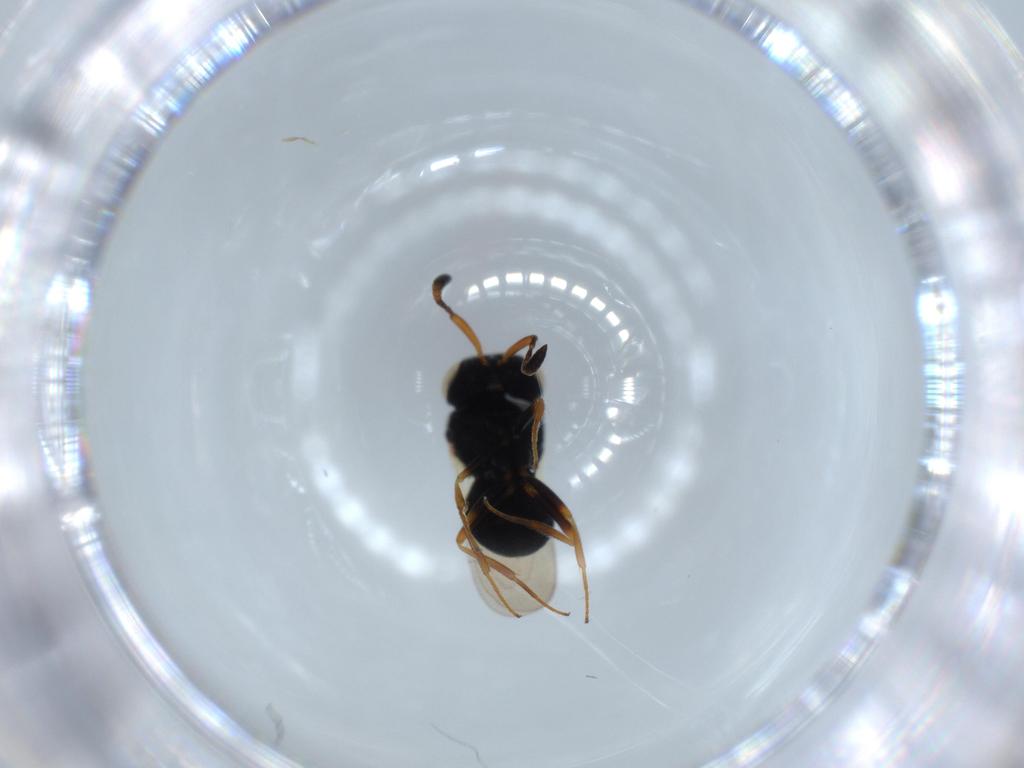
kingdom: Animalia
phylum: Arthropoda
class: Insecta
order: Hymenoptera
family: Scelionidae
